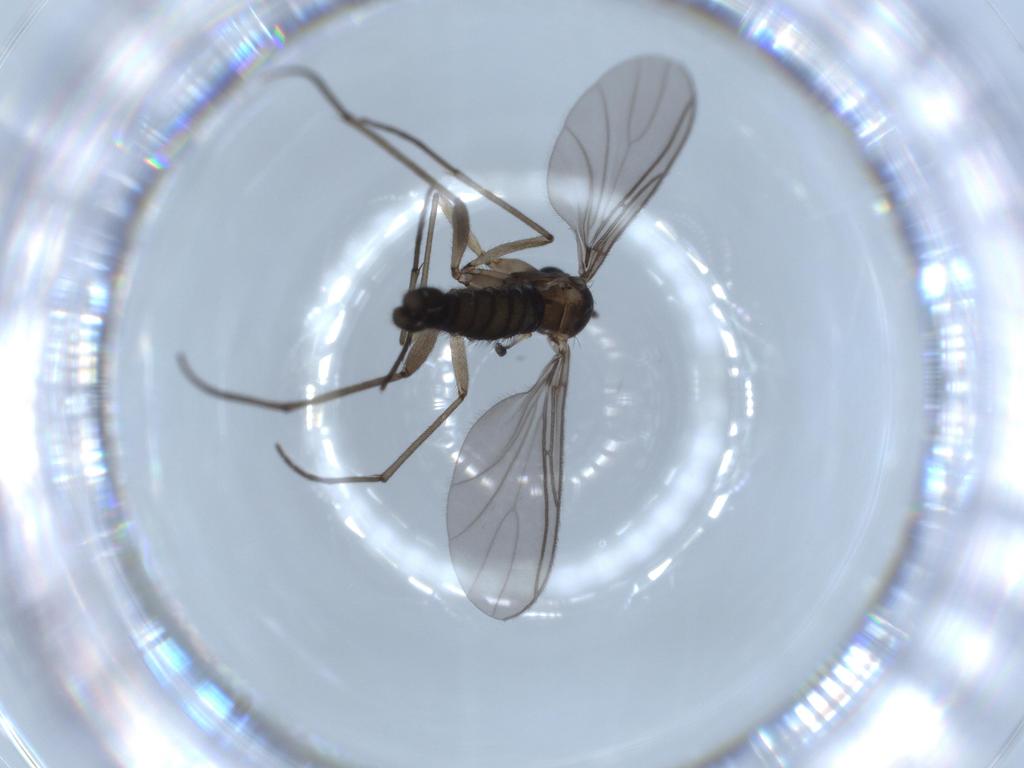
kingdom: Animalia
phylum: Arthropoda
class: Insecta
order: Diptera
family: Sciaridae
